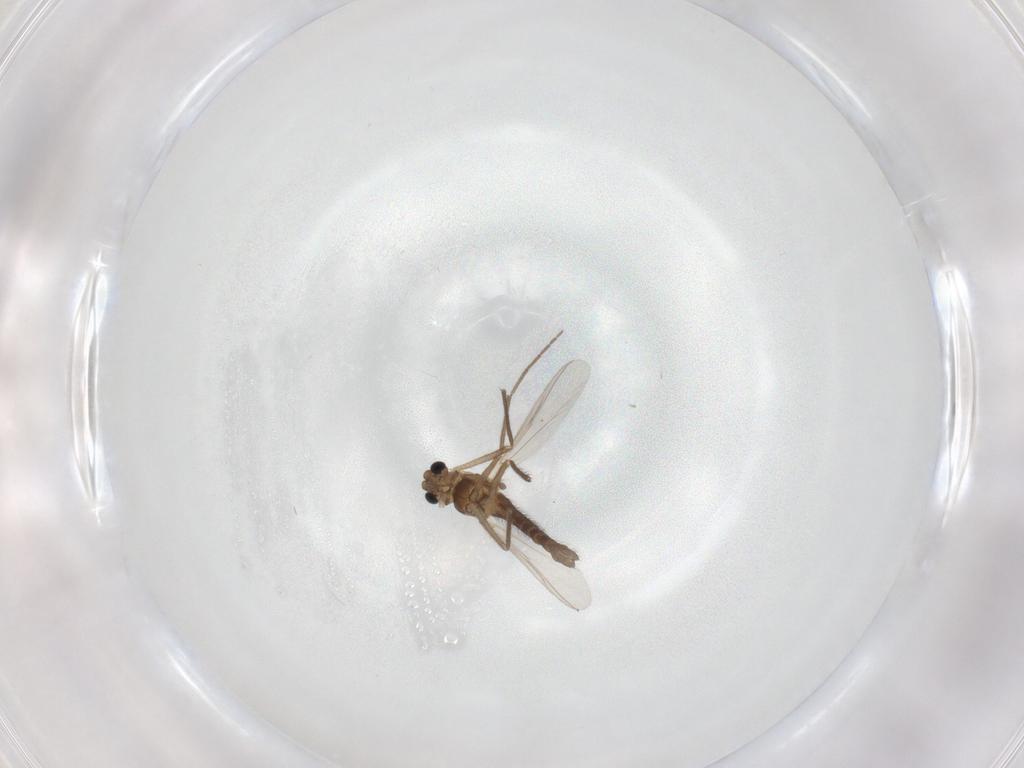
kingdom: Animalia
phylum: Arthropoda
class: Insecta
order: Diptera
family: Chironomidae
